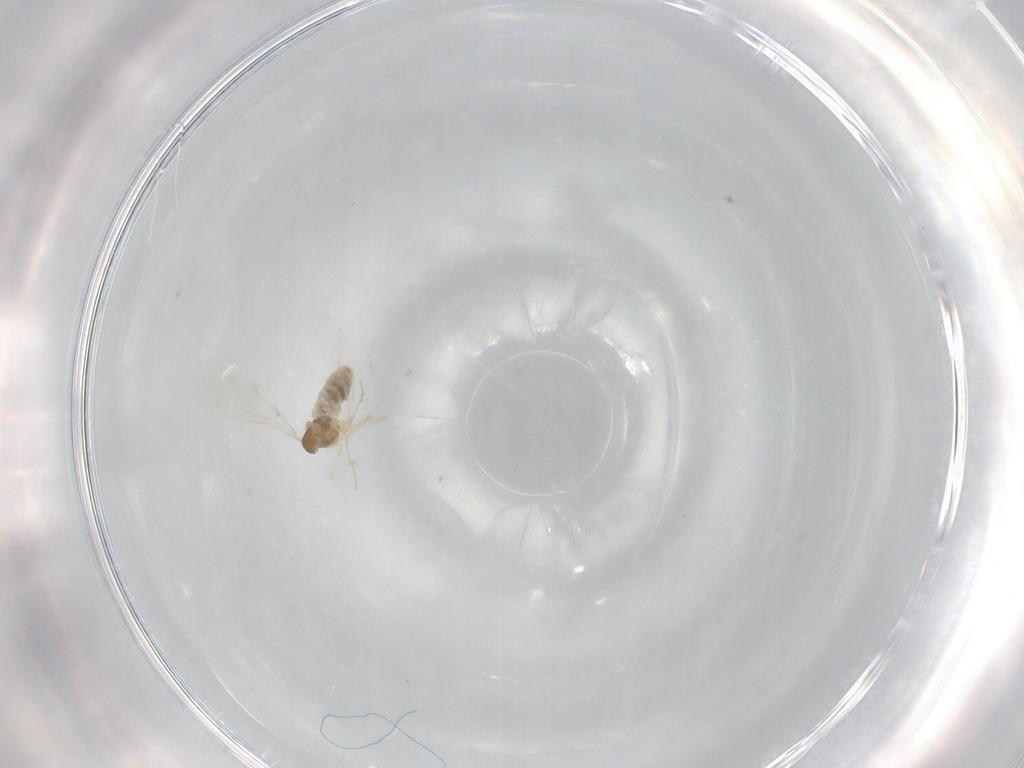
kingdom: Animalia
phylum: Arthropoda
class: Insecta
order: Diptera
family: Cecidomyiidae
